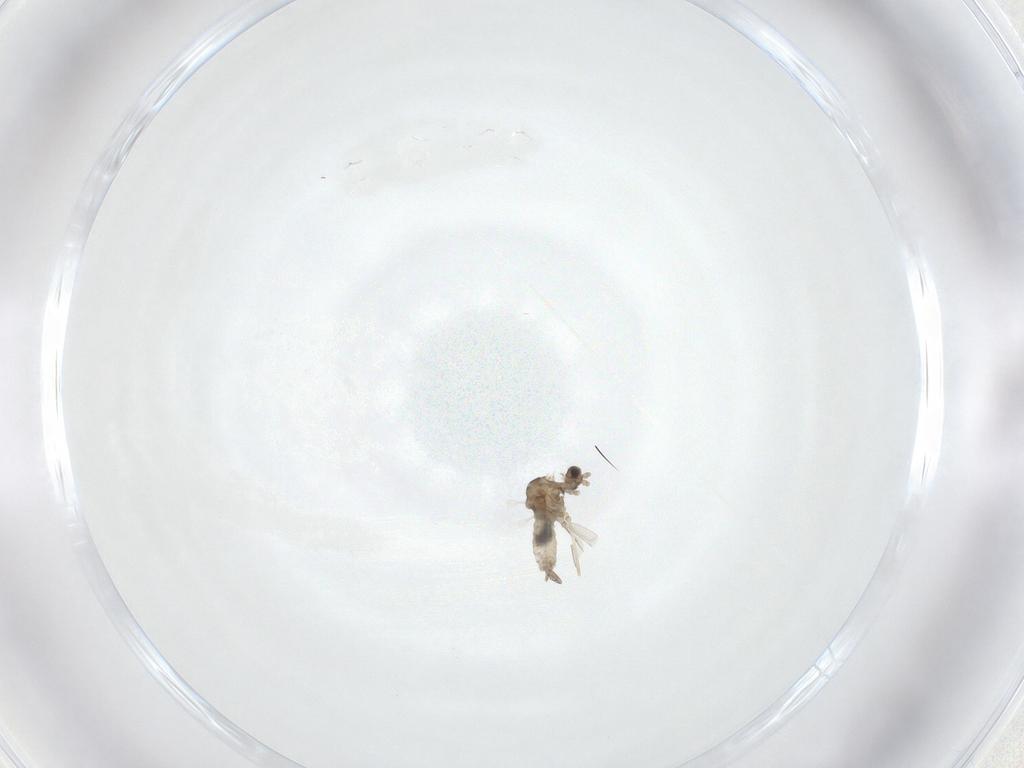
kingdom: Animalia
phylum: Arthropoda
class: Insecta
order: Diptera
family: Cecidomyiidae
